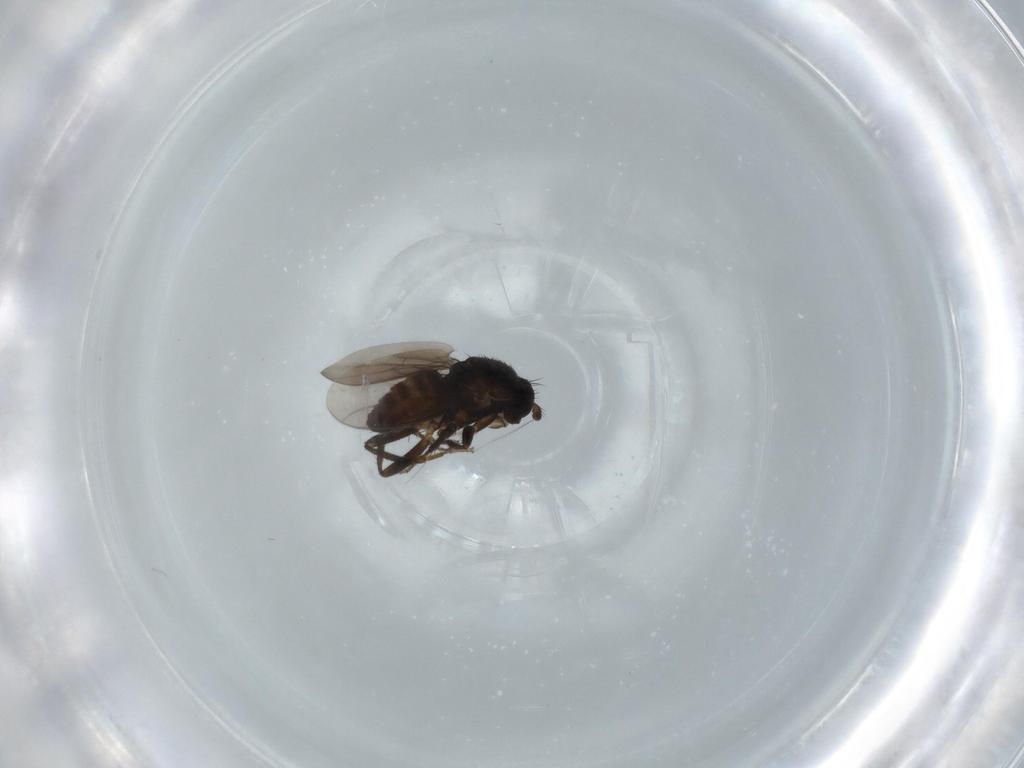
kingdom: Animalia
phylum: Arthropoda
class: Insecta
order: Diptera
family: Sphaeroceridae
